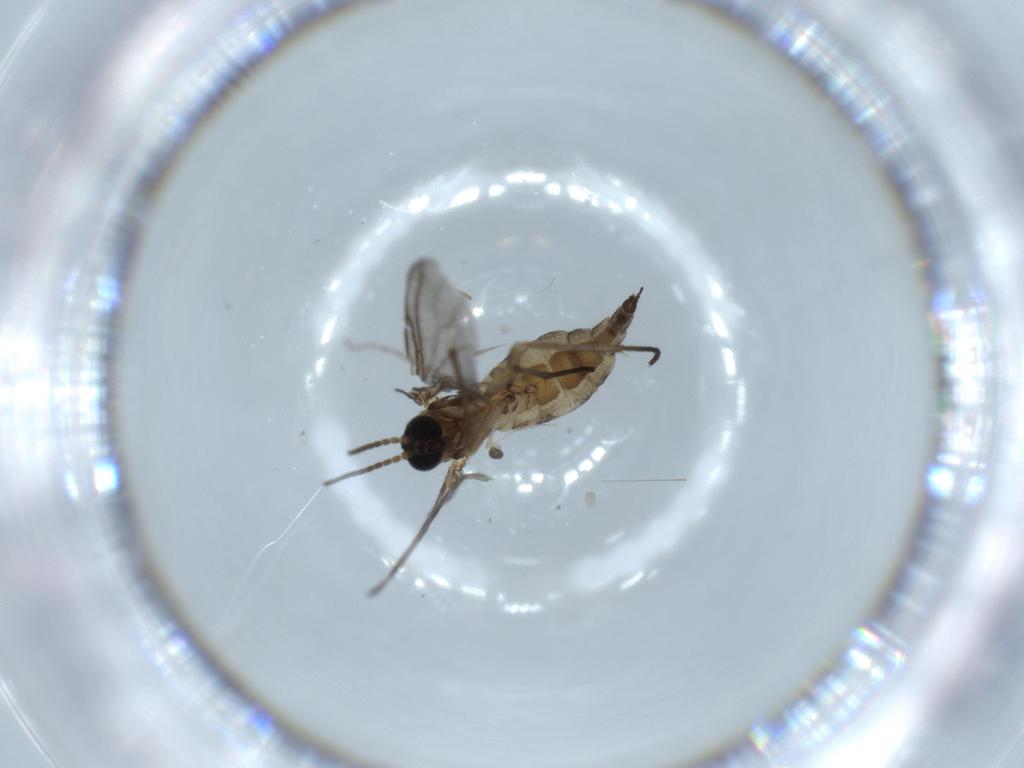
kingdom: Animalia
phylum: Arthropoda
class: Insecta
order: Diptera
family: Sciaridae
